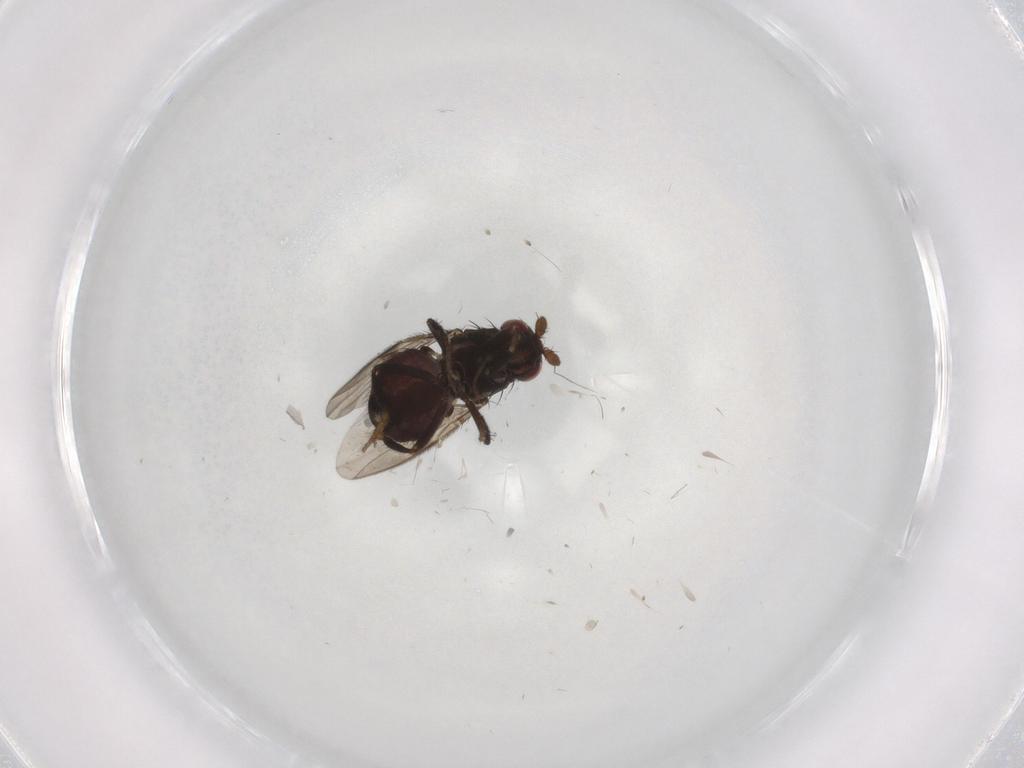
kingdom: Animalia
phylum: Arthropoda
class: Insecta
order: Diptera
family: Sphaeroceridae
